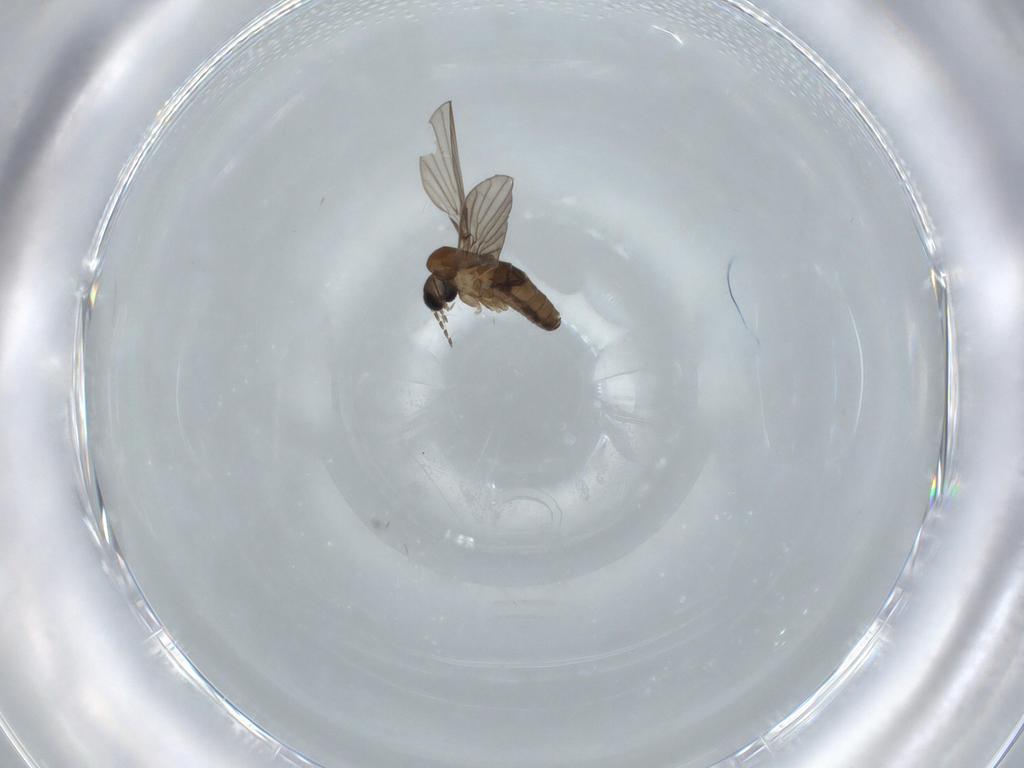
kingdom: Animalia
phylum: Arthropoda
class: Insecta
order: Diptera
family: Psychodidae
